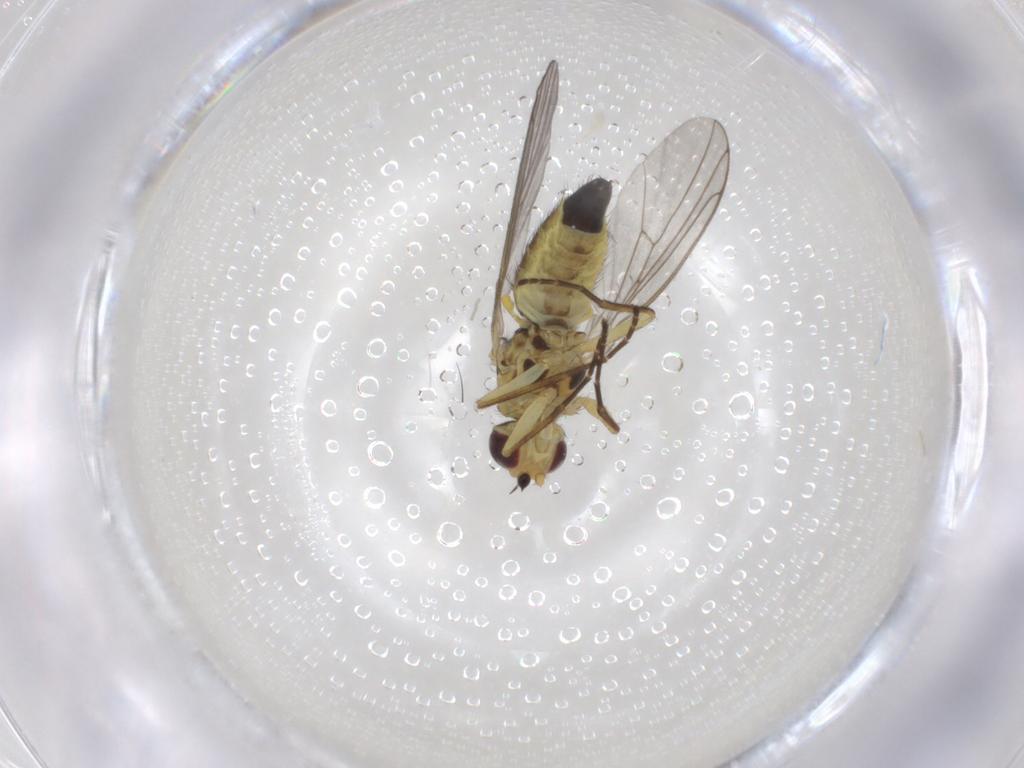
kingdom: Animalia
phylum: Arthropoda
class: Insecta
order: Diptera
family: Agromyzidae
